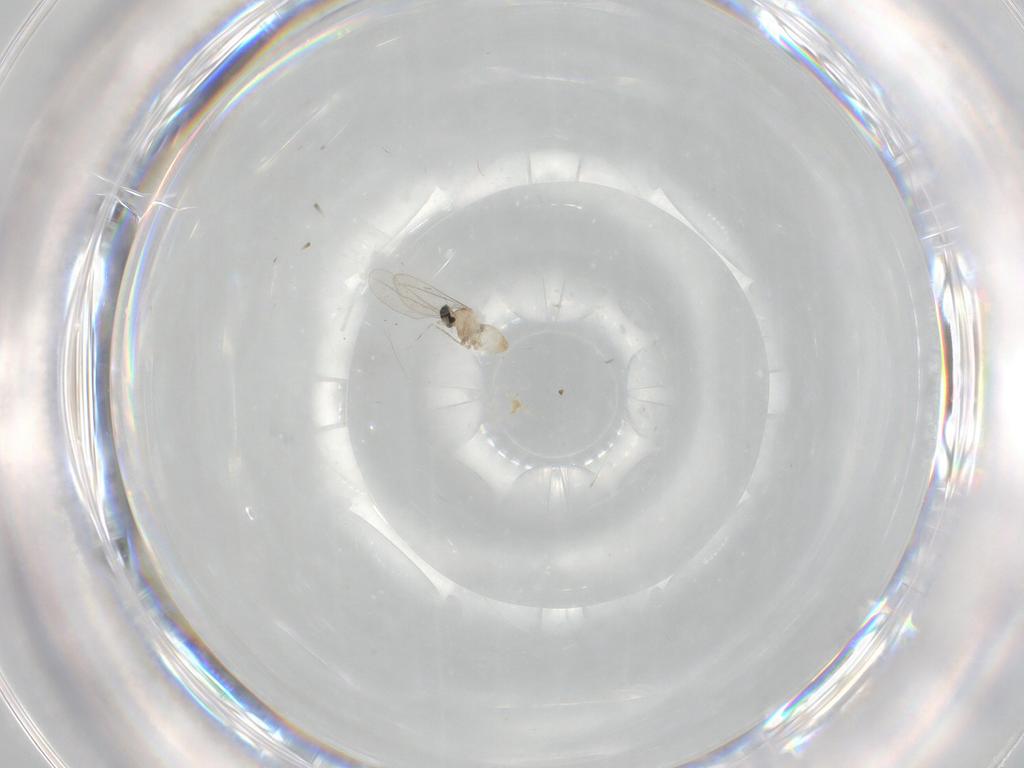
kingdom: Animalia
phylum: Arthropoda
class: Insecta
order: Diptera
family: Cecidomyiidae
